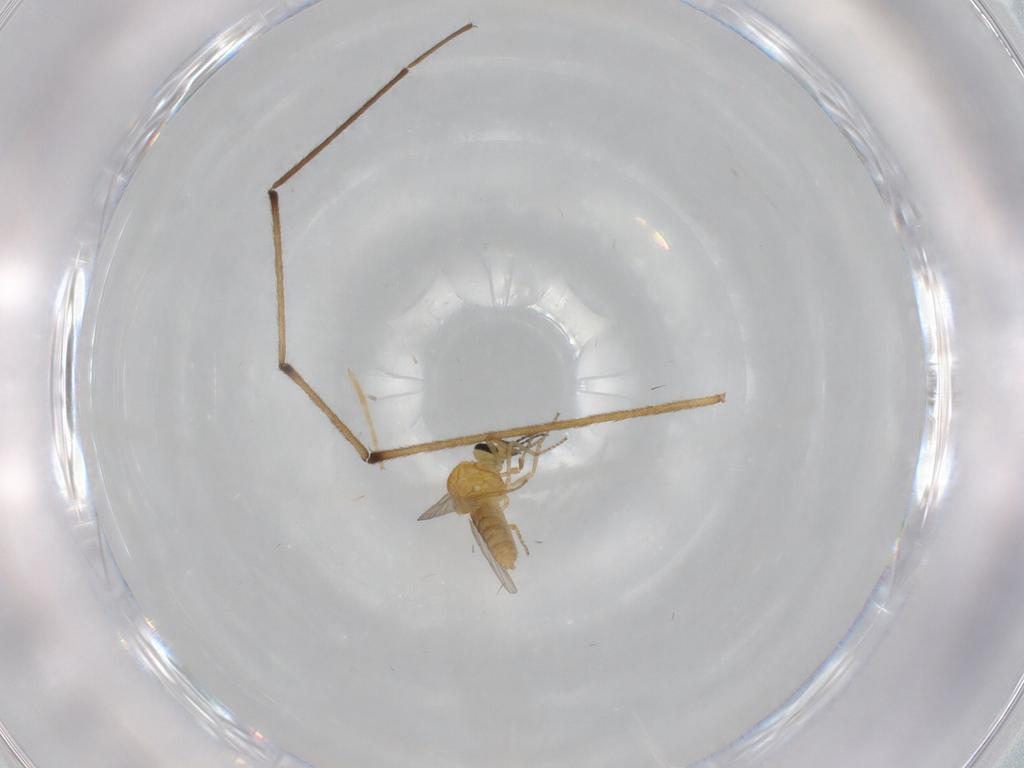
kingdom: Animalia
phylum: Arthropoda
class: Insecta
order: Diptera
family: Ceratopogonidae
